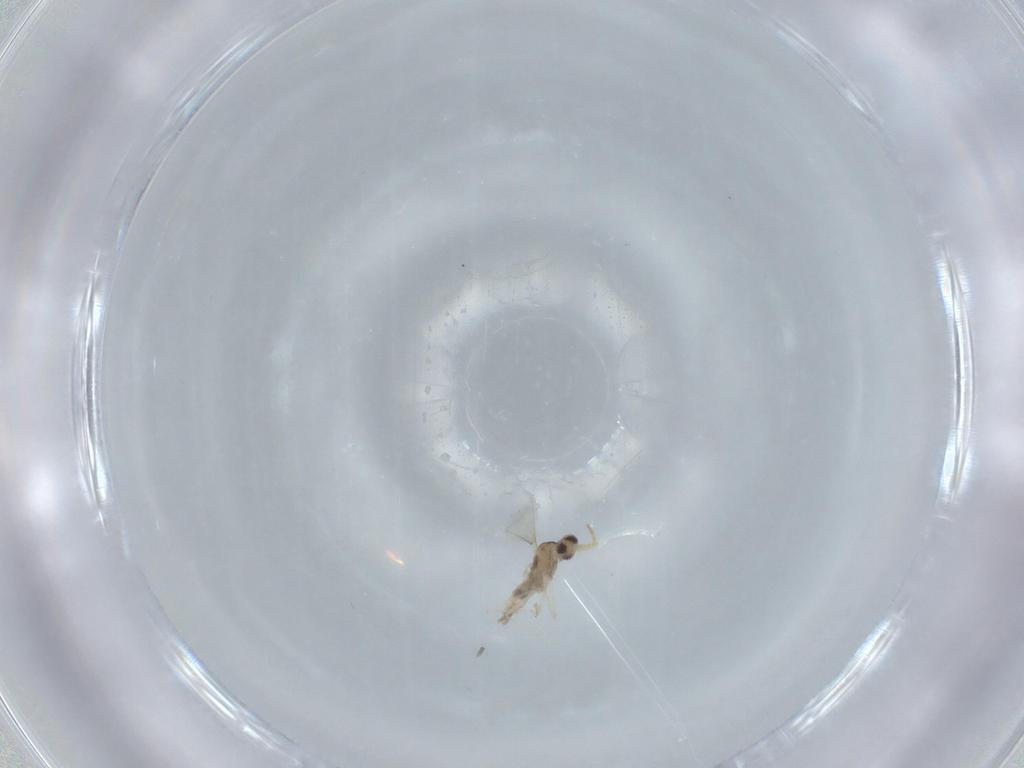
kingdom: Animalia
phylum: Arthropoda
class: Insecta
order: Diptera
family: Cecidomyiidae
